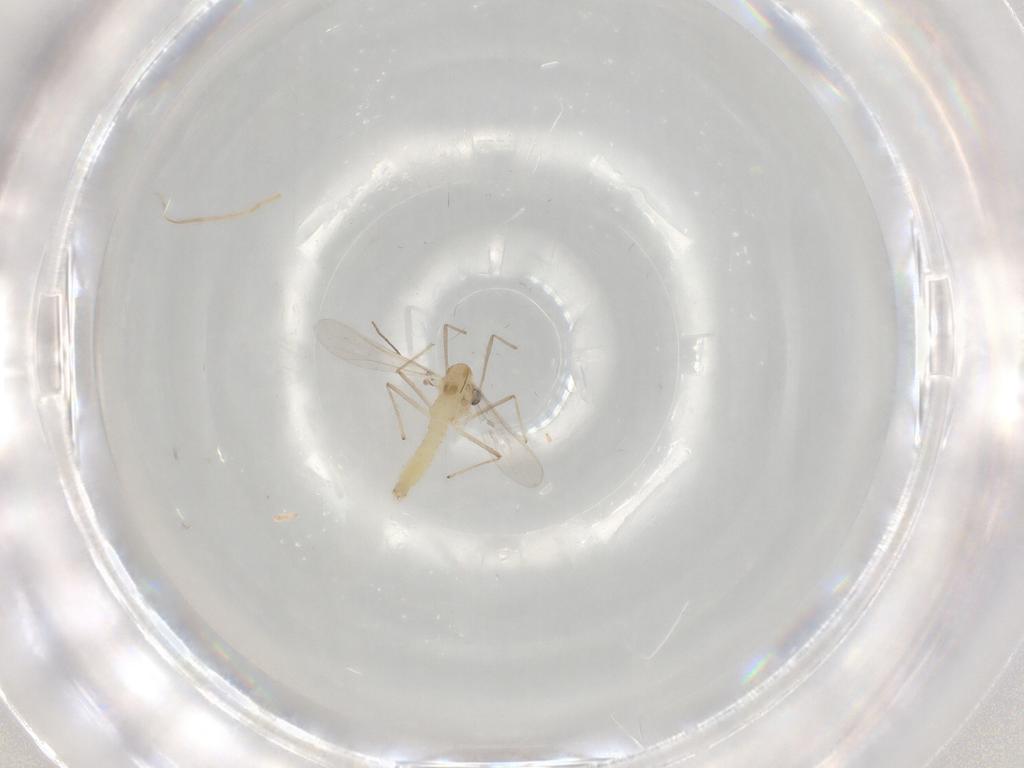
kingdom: Animalia
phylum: Arthropoda
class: Insecta
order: Diptera
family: Chironomidae
